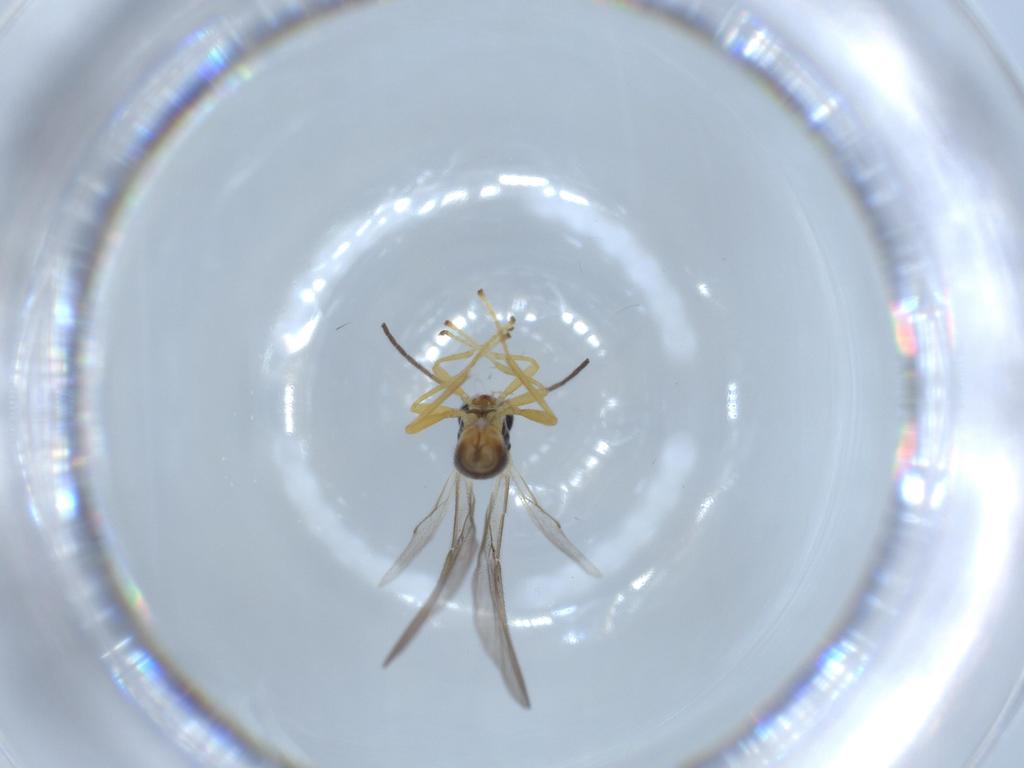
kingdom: Animalia
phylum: Arthropoda
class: Insecta
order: Hymenoptera
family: Braconidae
